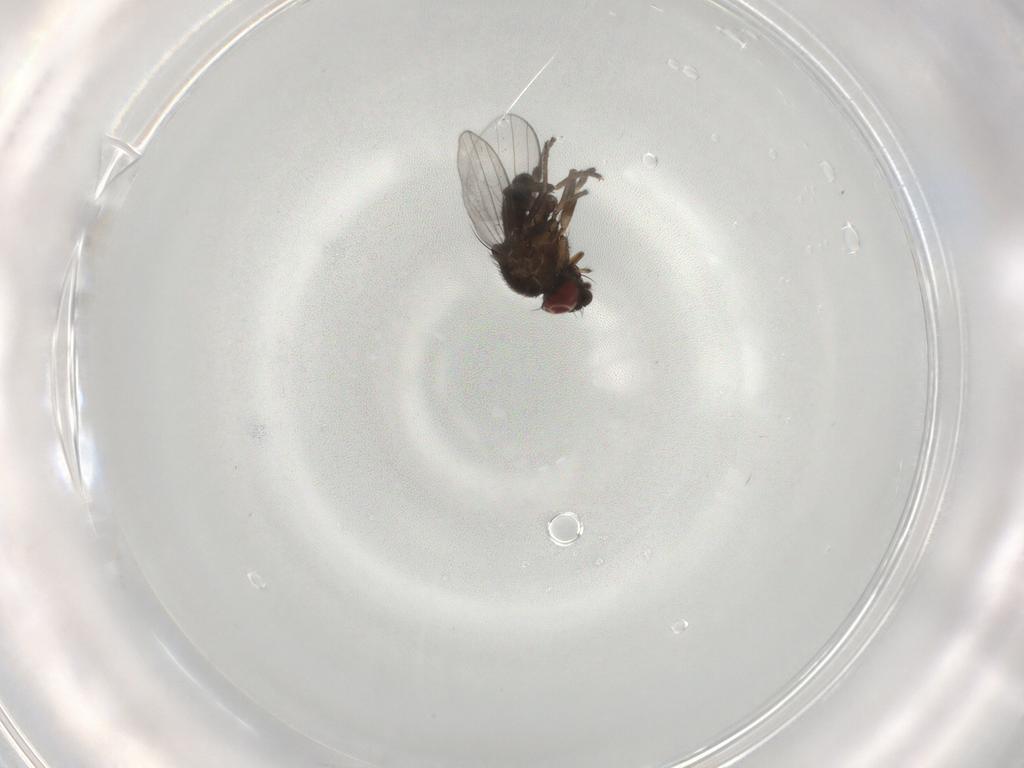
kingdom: Animalia
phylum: Arthropoda
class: Insecta
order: Diptera
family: Milichiidae
